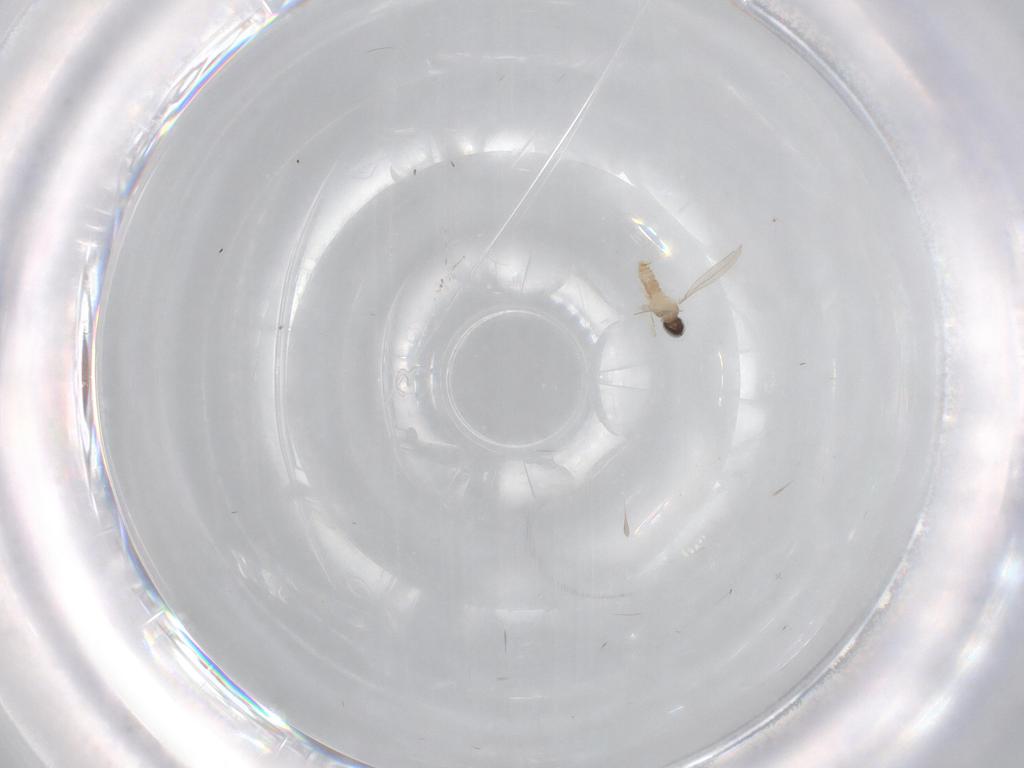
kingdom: Animalia
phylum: Arthropoda
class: Insecta
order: Diptera
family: Cecidomyiidae
